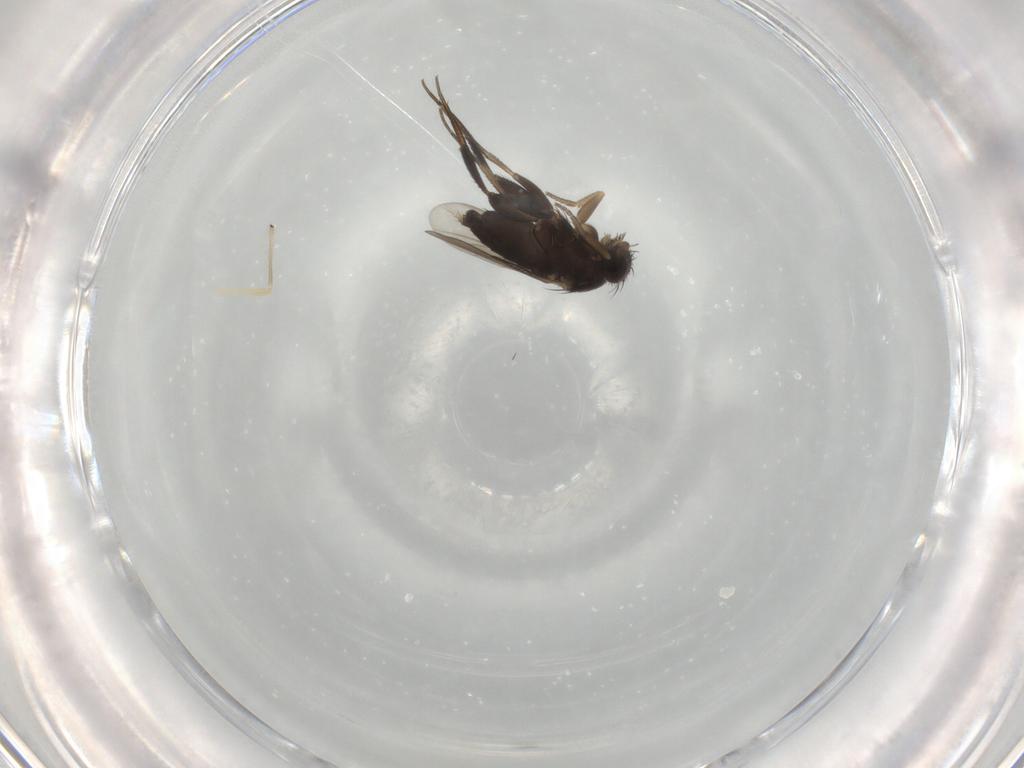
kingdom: Animalia
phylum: Arthropoda
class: Insecta
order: Diptera
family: Phoridae
